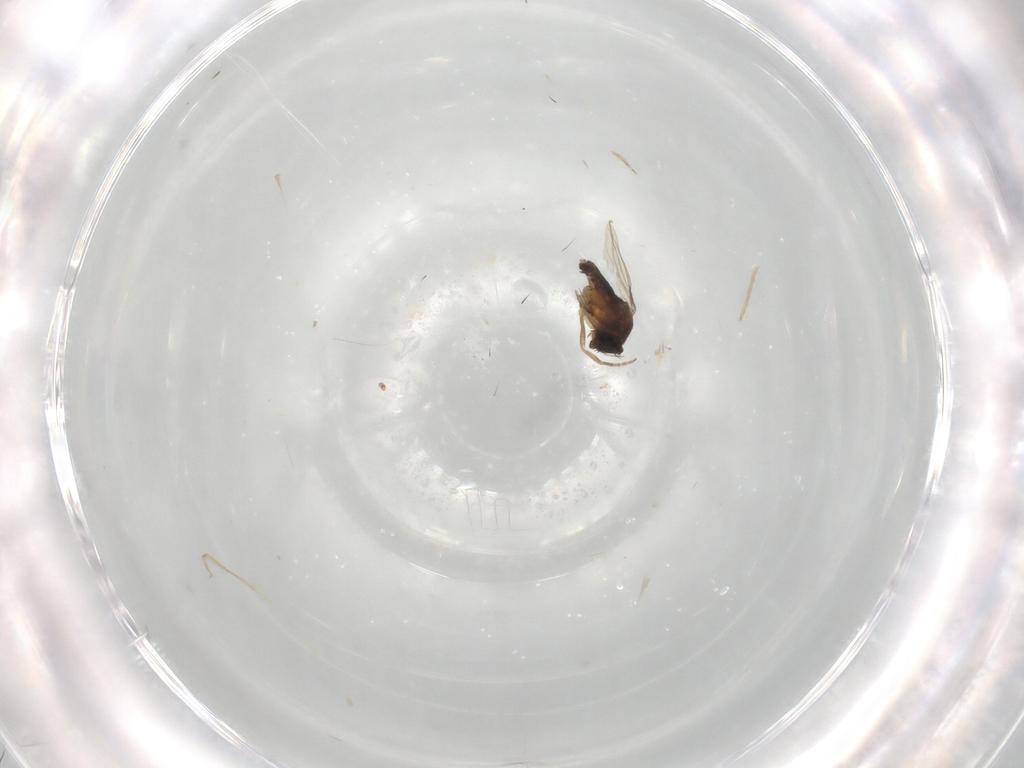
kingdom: Animalia
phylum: Arthropoda
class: Insecta
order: Diptera
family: Phoridae
